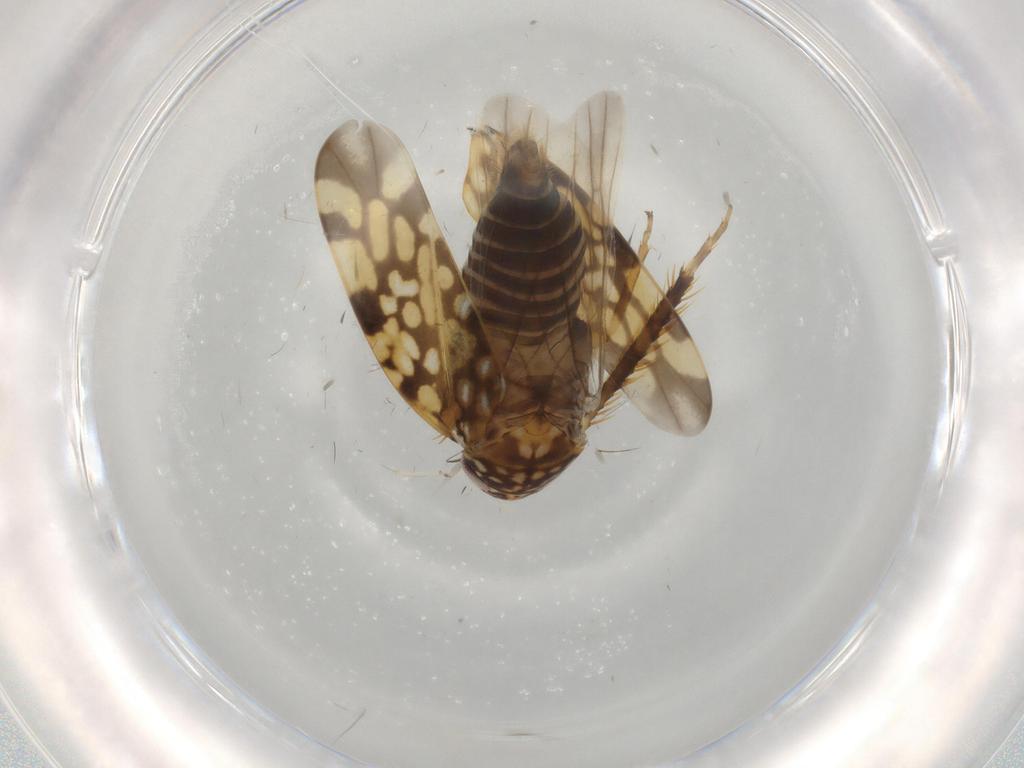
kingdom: Animalia
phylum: Arthropoda
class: Insecta
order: Hemiptera
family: Cicadellidae
